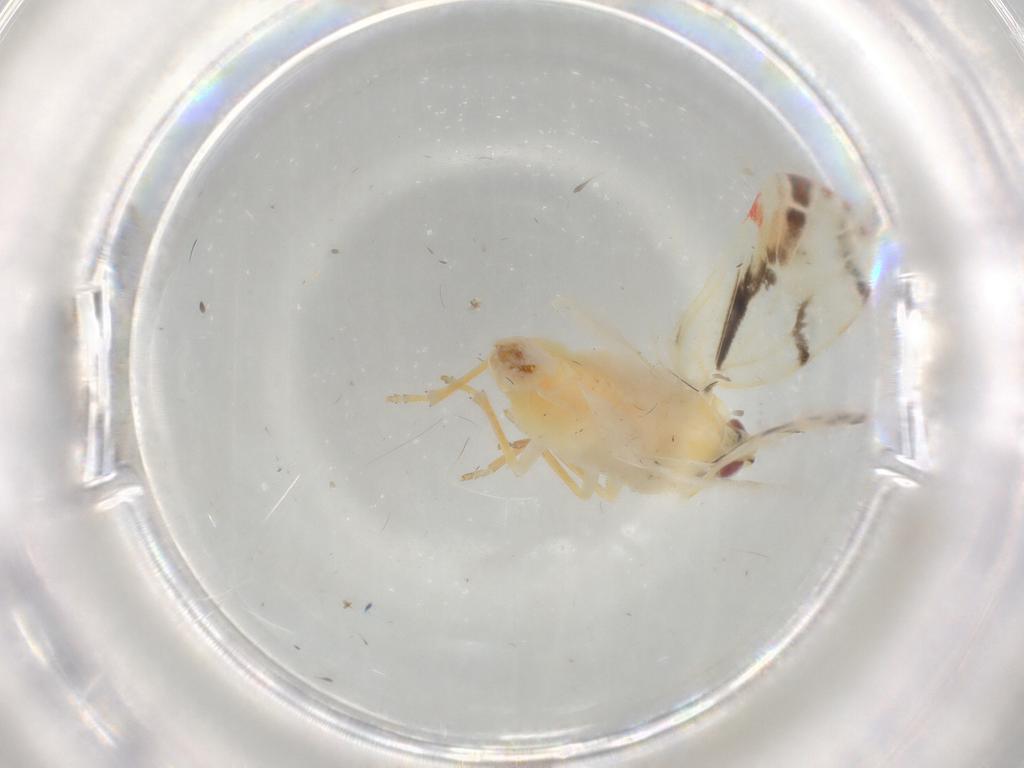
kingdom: Animalia
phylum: Arthropoda
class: Insecta
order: Hemiptera
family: Derbidae
